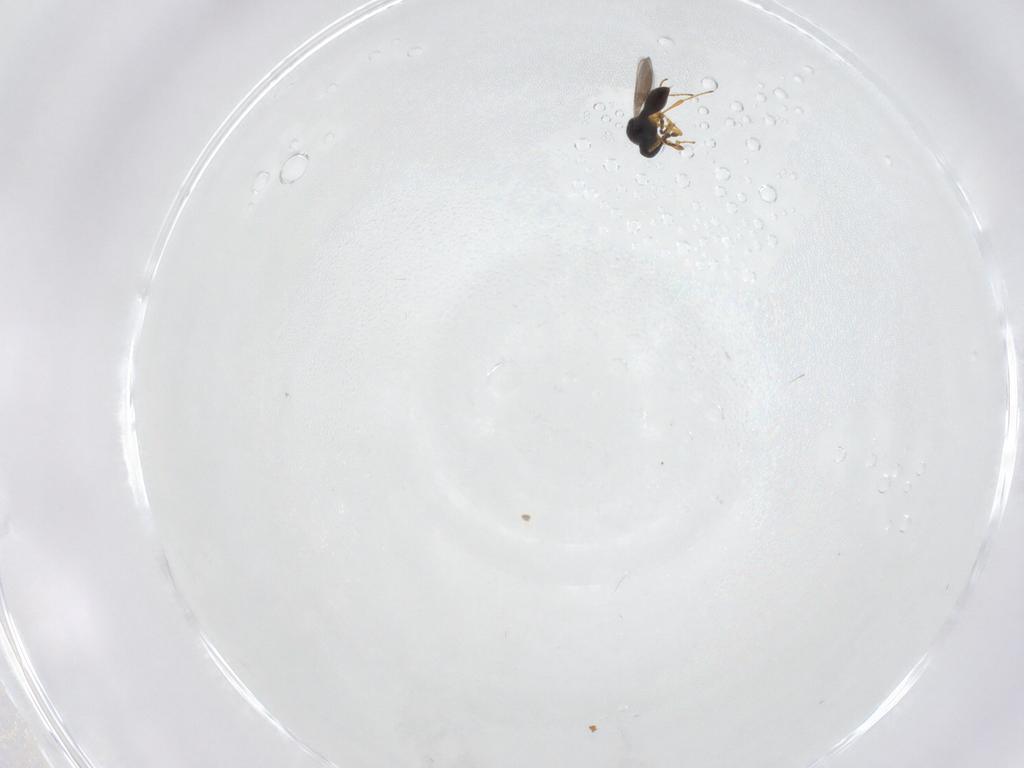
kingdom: Animalia
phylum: Arthropoda
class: Insecta
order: Hymenoptera
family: Platygastridae
